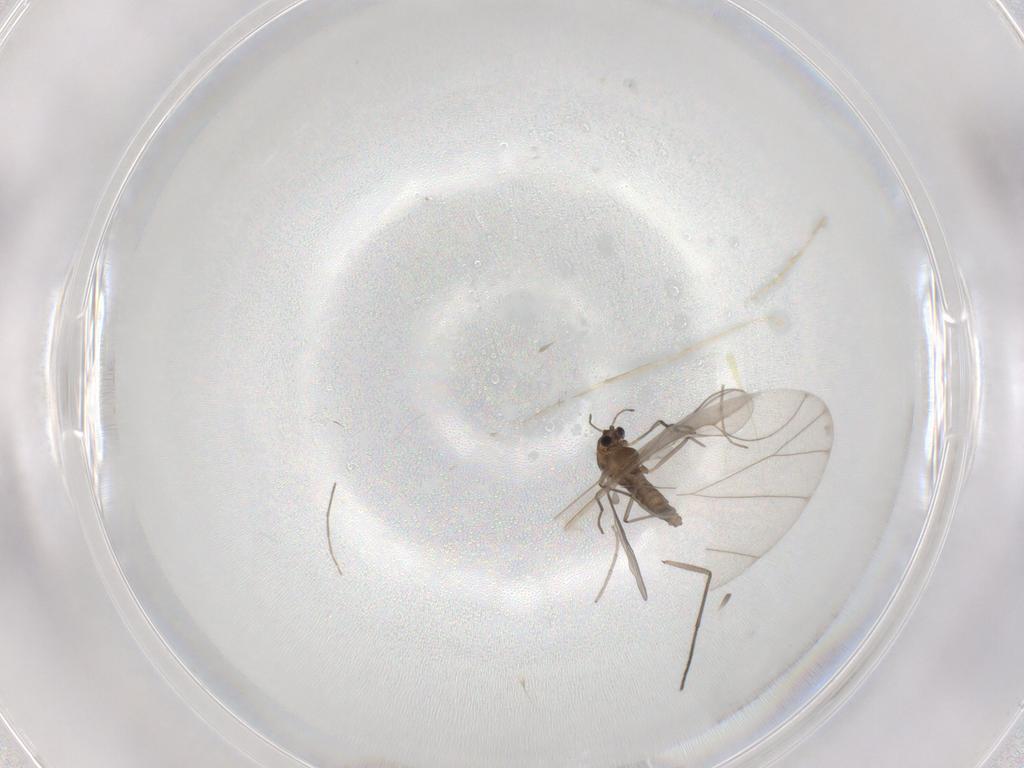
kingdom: Animalia
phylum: Arthropoda
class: Insecta
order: Diptera
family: Chironomidae
